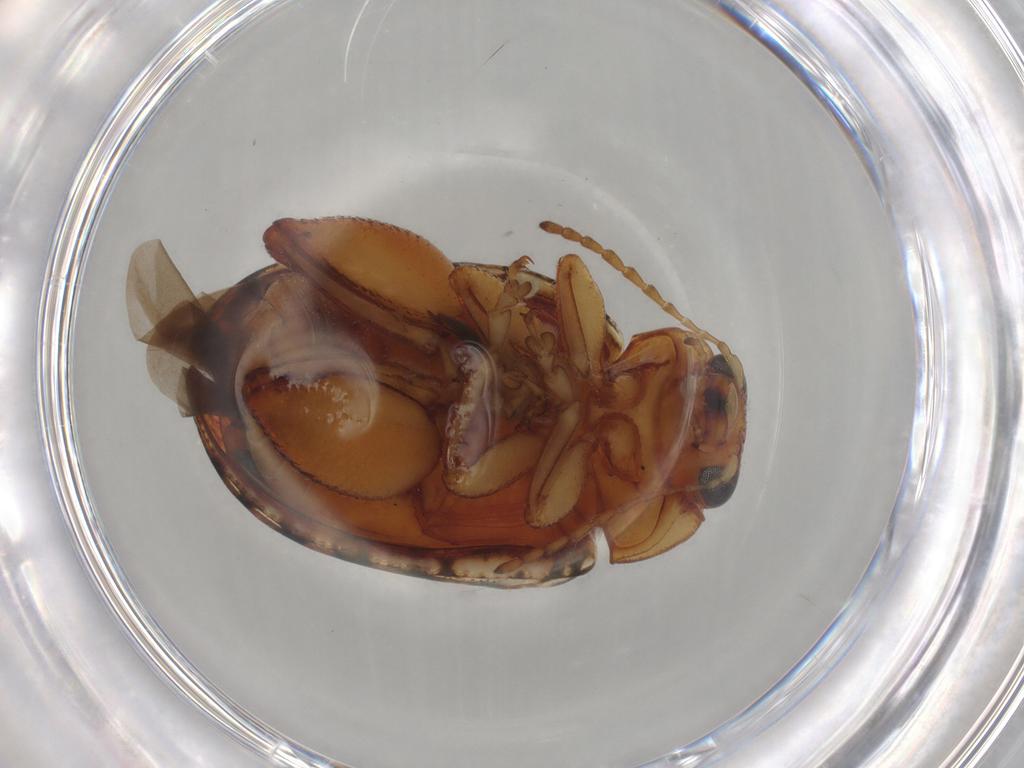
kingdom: Animalia
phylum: Arthropoda
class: Insecta
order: Diptera
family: Ceratopogonidae
